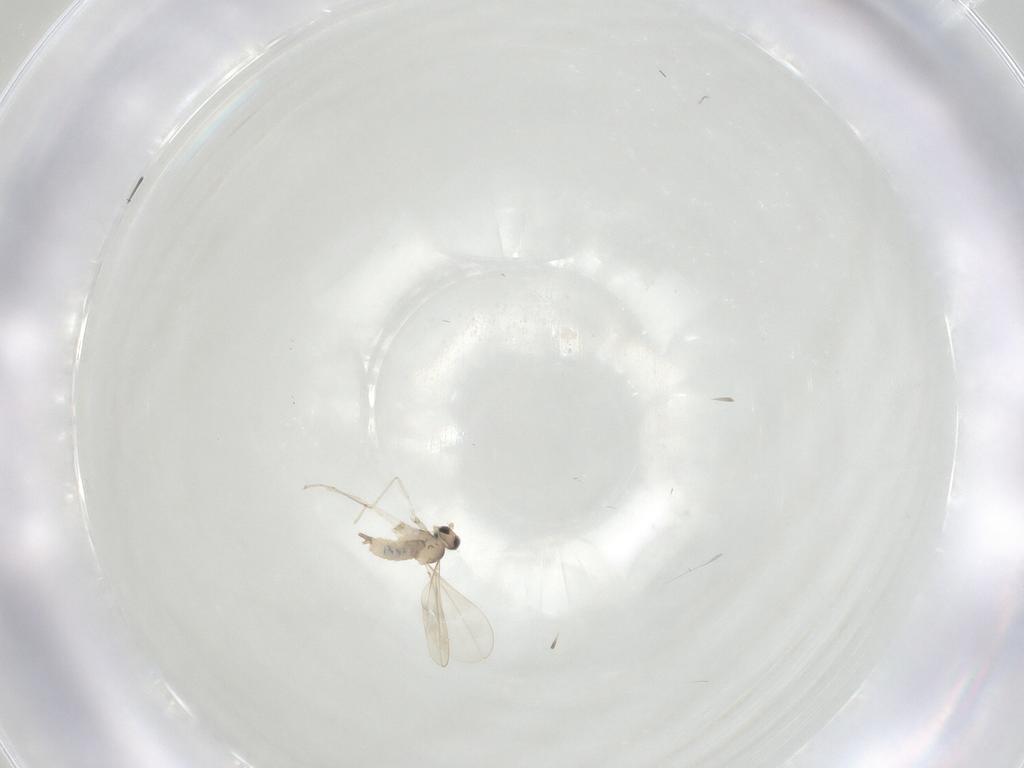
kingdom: Animalia
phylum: Arthropoda
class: Insecta
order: Diptera
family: Cecidomyiidae
